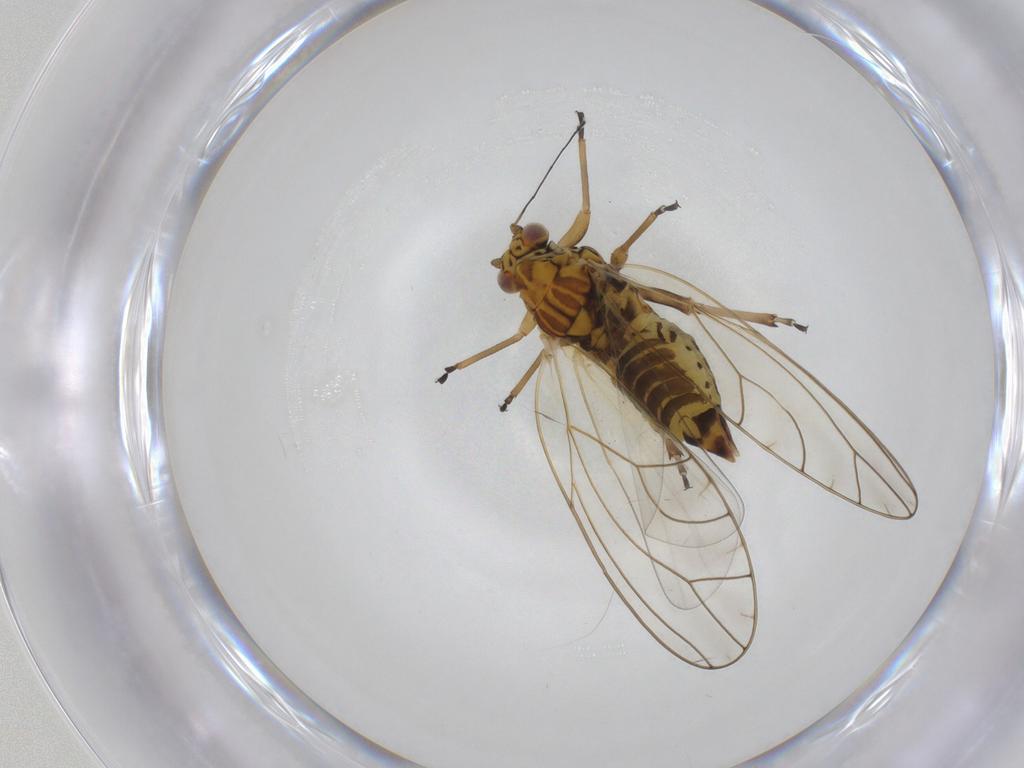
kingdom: Animalia
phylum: Arthropoda
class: Insecta
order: Hemiptera
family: Triozidae
